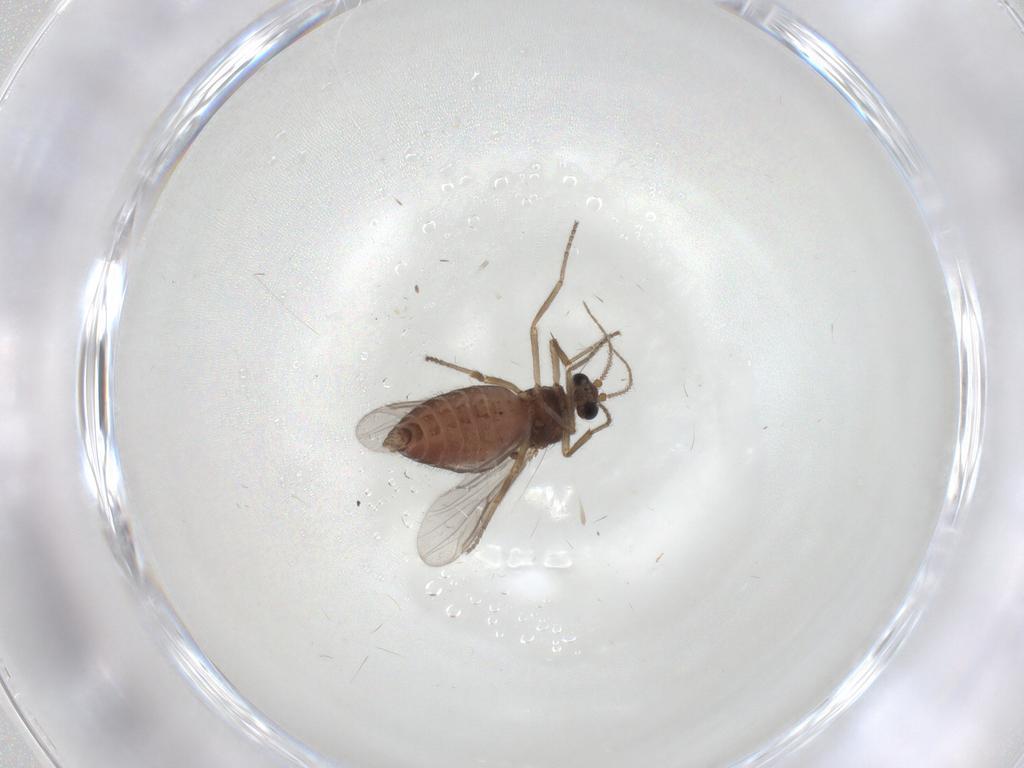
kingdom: Animalia
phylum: Arthropoda
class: Insecta
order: Diptera
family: Ceratopogonidae
